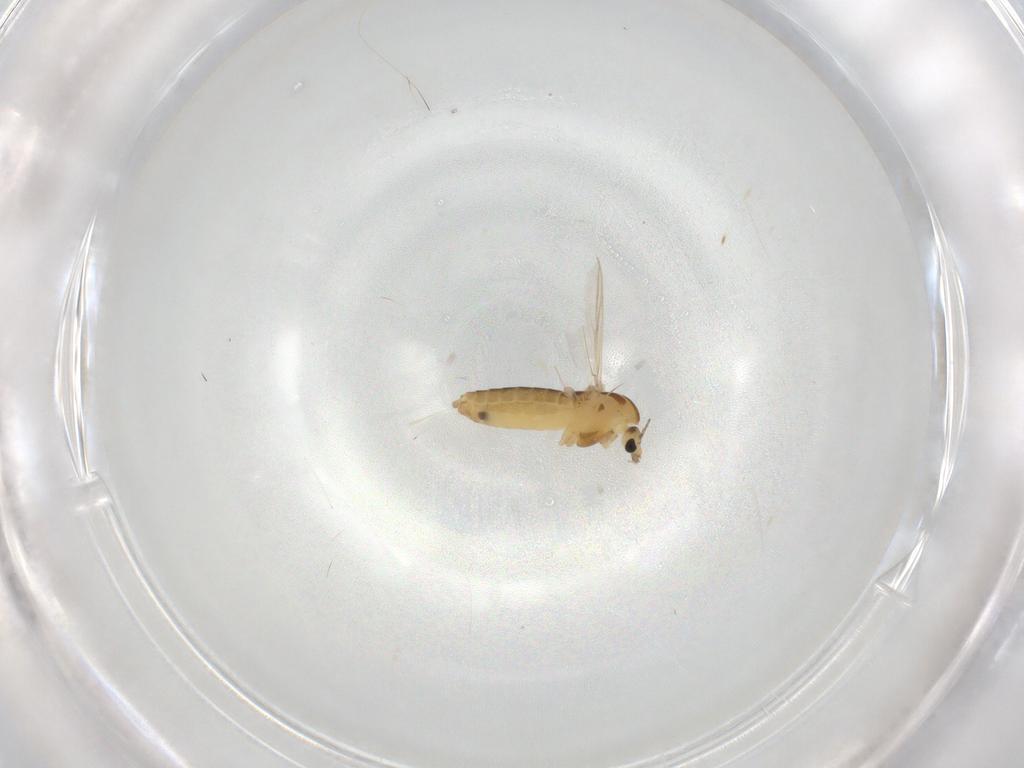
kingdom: Animalia
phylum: Arthropoda
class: Insecta
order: Diptera
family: Chironomidae
